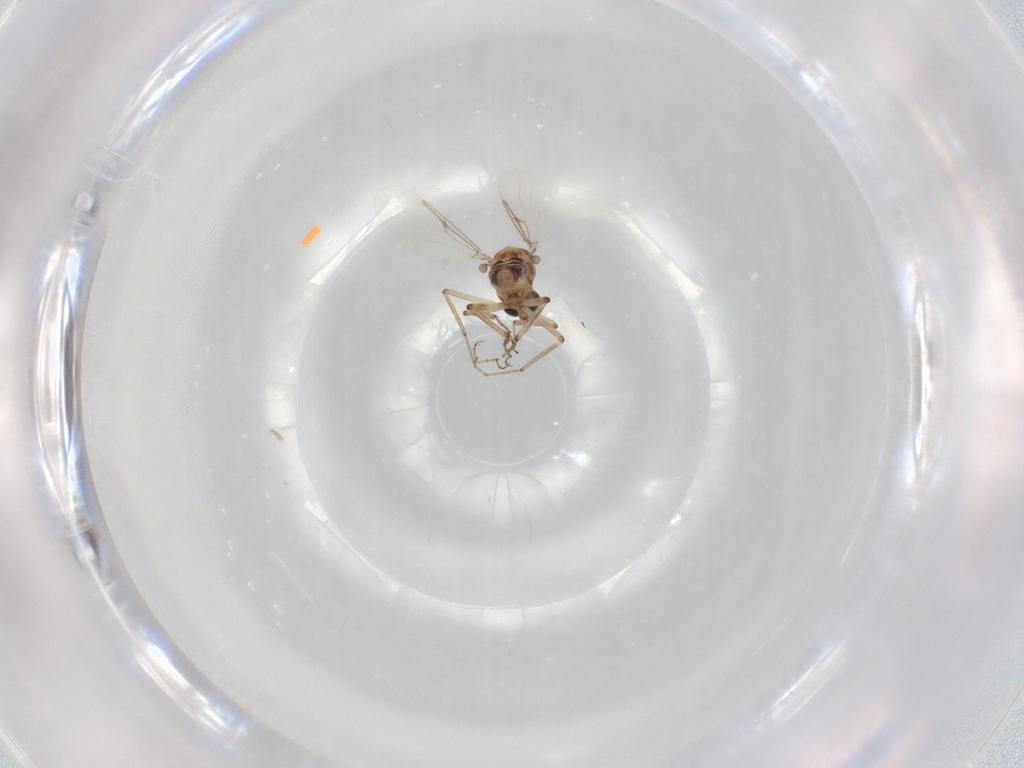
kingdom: Animalia
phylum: Arthropoda
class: Insecta
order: Diptera
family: Ceratopogonidae
